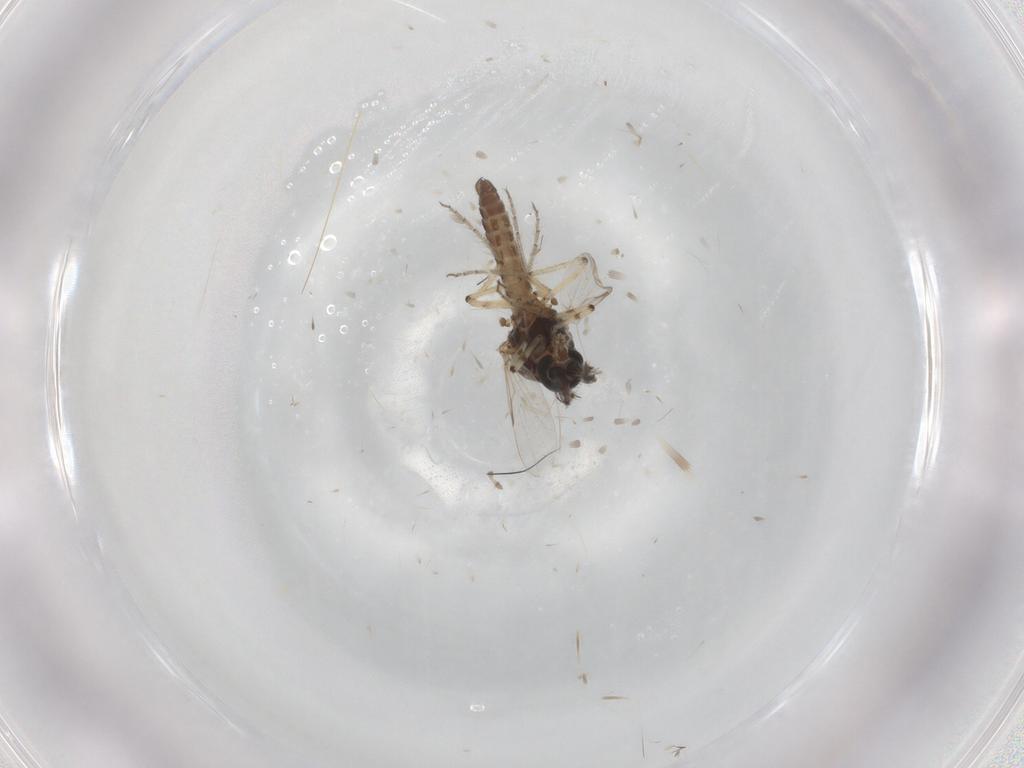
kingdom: Animalia
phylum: Arthropoda
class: Insecta
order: Diptera
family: Ceratopogonidae
